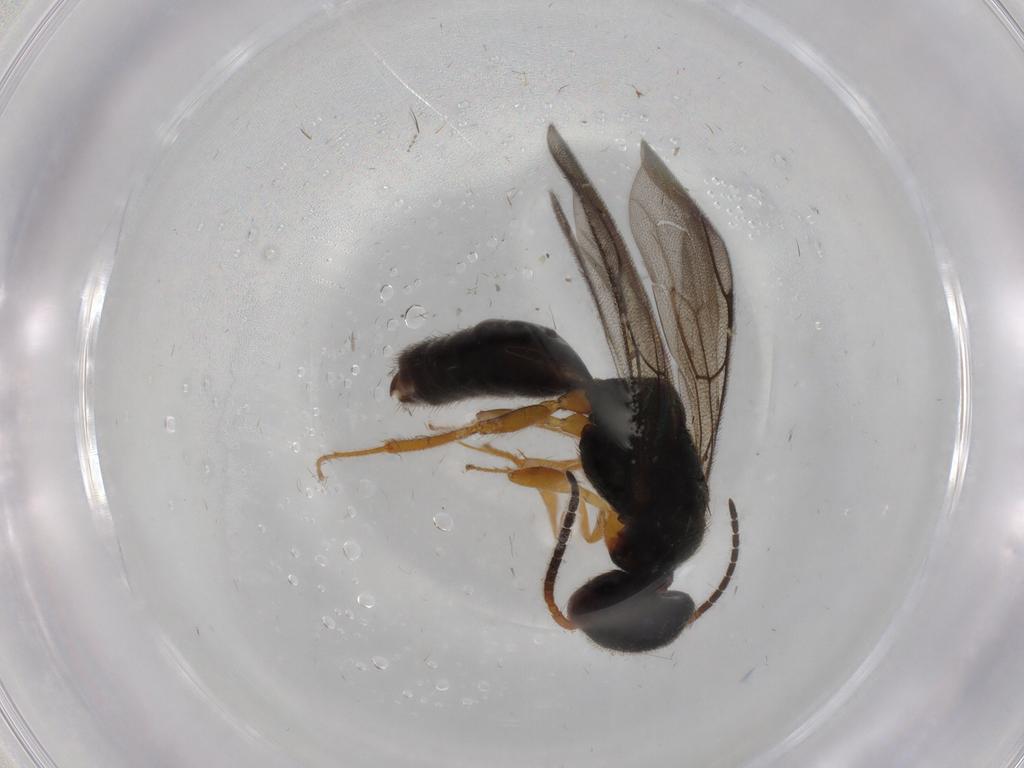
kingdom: Animalia
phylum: Arthropoda
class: Insecta
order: Hymenoptera
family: Bethylidae
